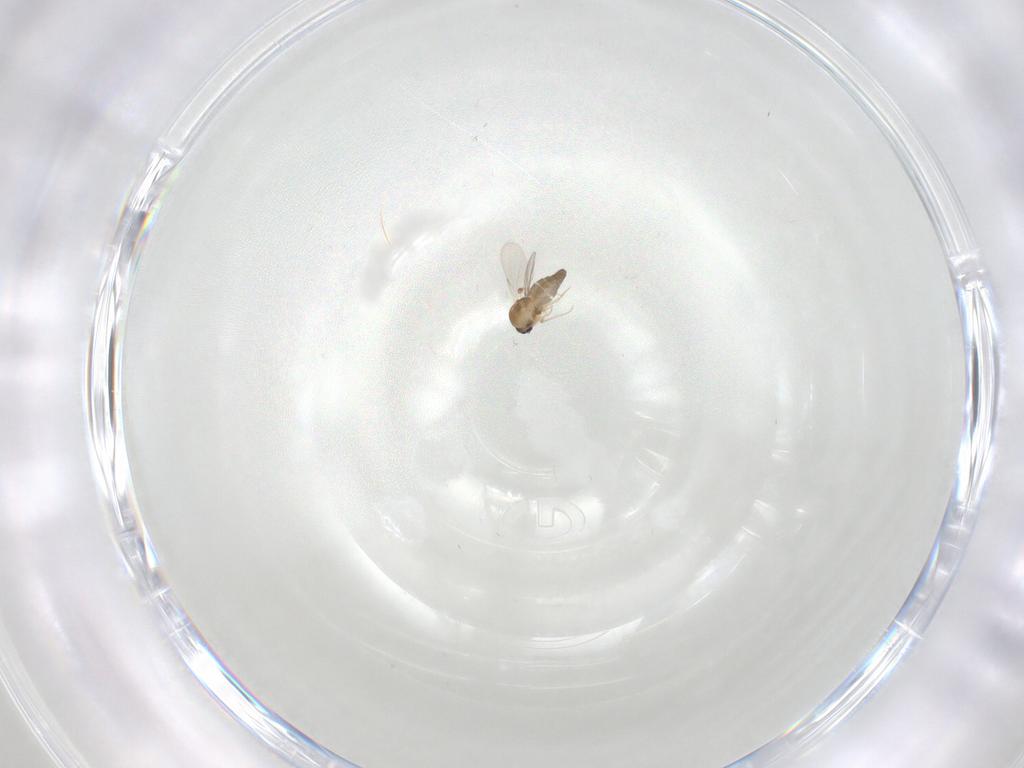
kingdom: Animalia
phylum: Arthropoda
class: Insecta
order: Diptera
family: Ceratopogonidae
